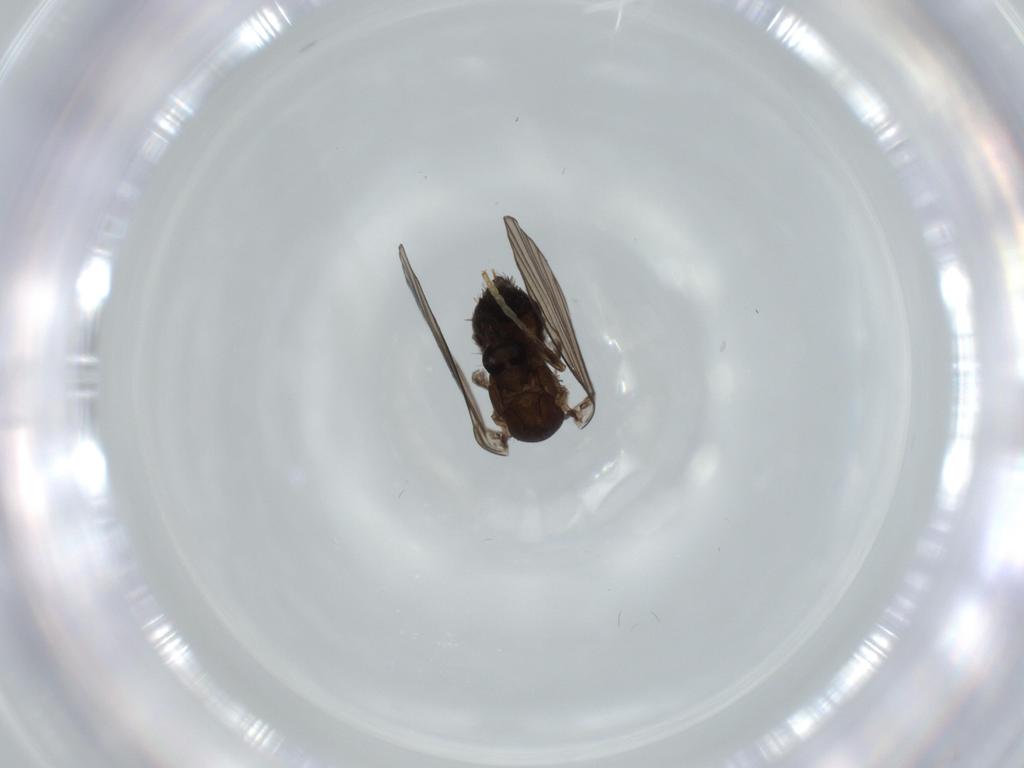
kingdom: Animalia
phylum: Arthropoda
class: Insecta
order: Diptera
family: Psychodidae
